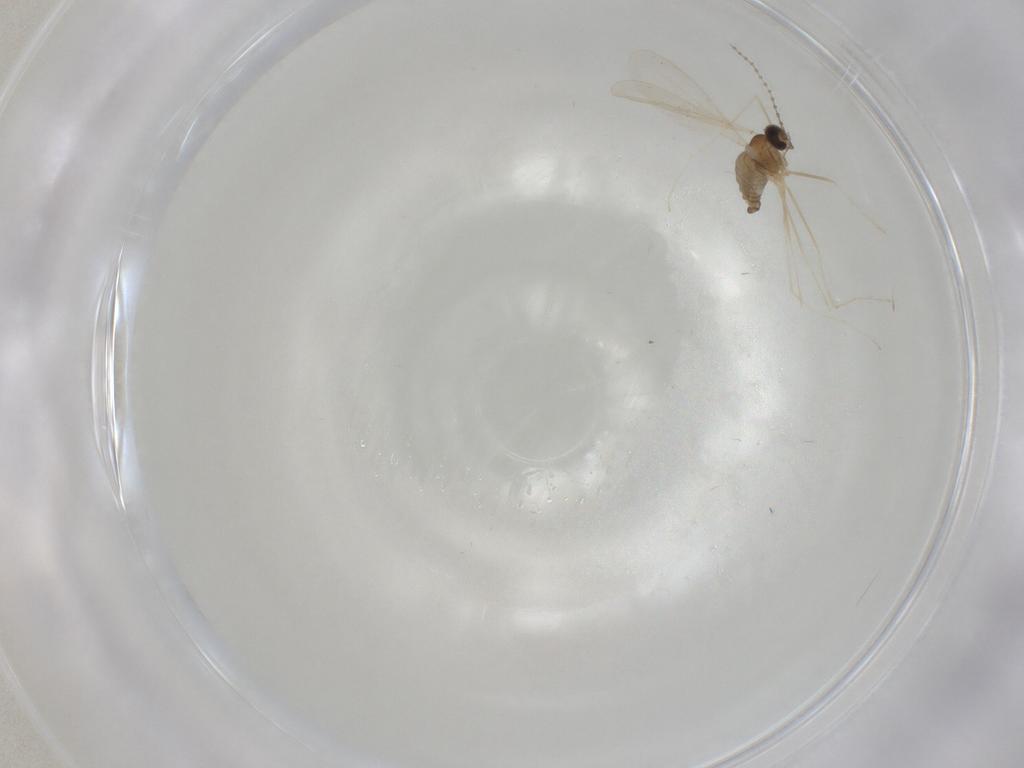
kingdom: Animalia
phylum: Arthropoda
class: Insecta
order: Diptera
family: Cecidomyiidae
